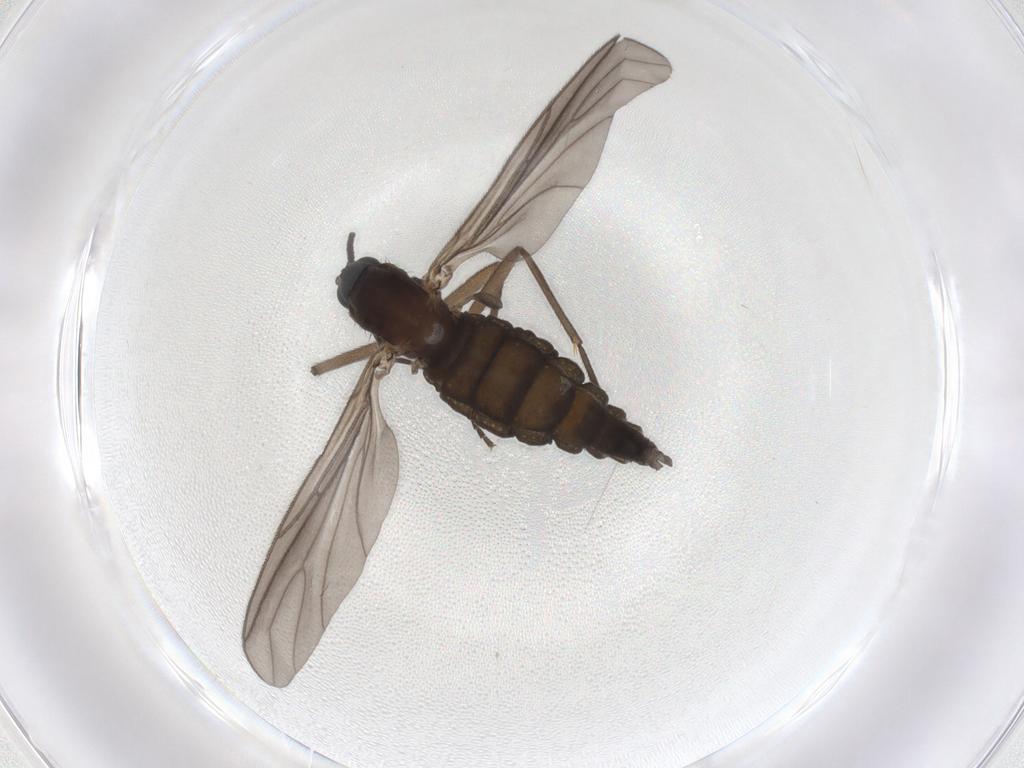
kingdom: Animalia
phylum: Arthropoda
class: Insecta
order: Diptera
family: Sciaridae
